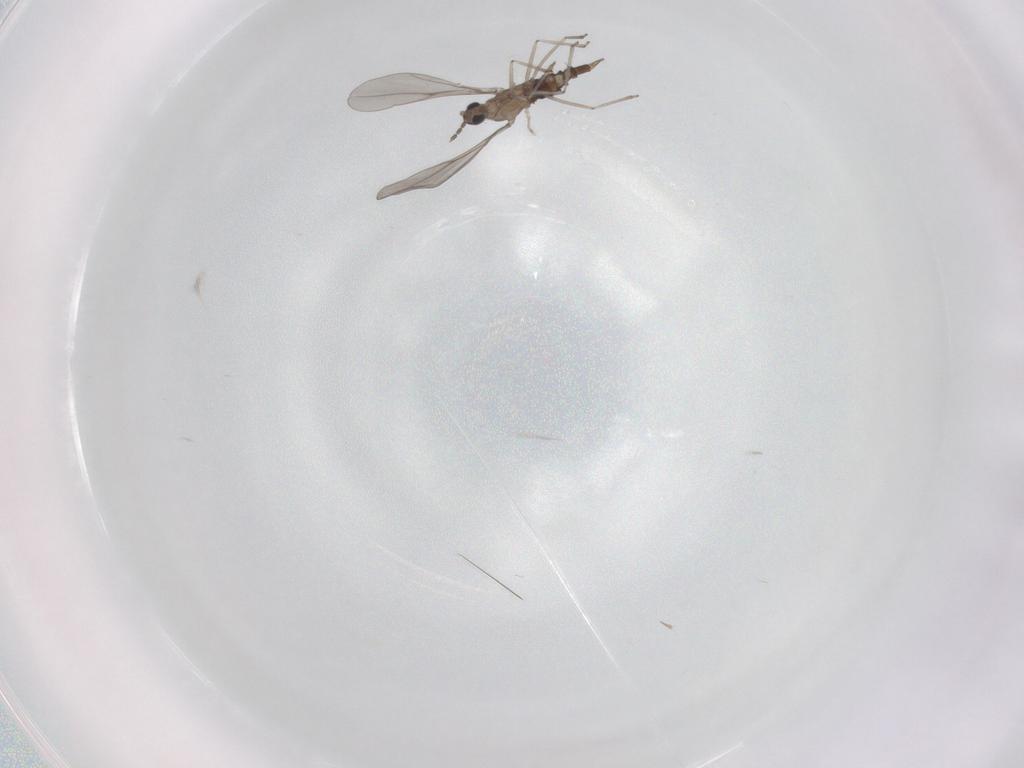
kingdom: Animalia
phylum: Arthropoda
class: Insecta
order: Diptera
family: Cecidomyiidae
